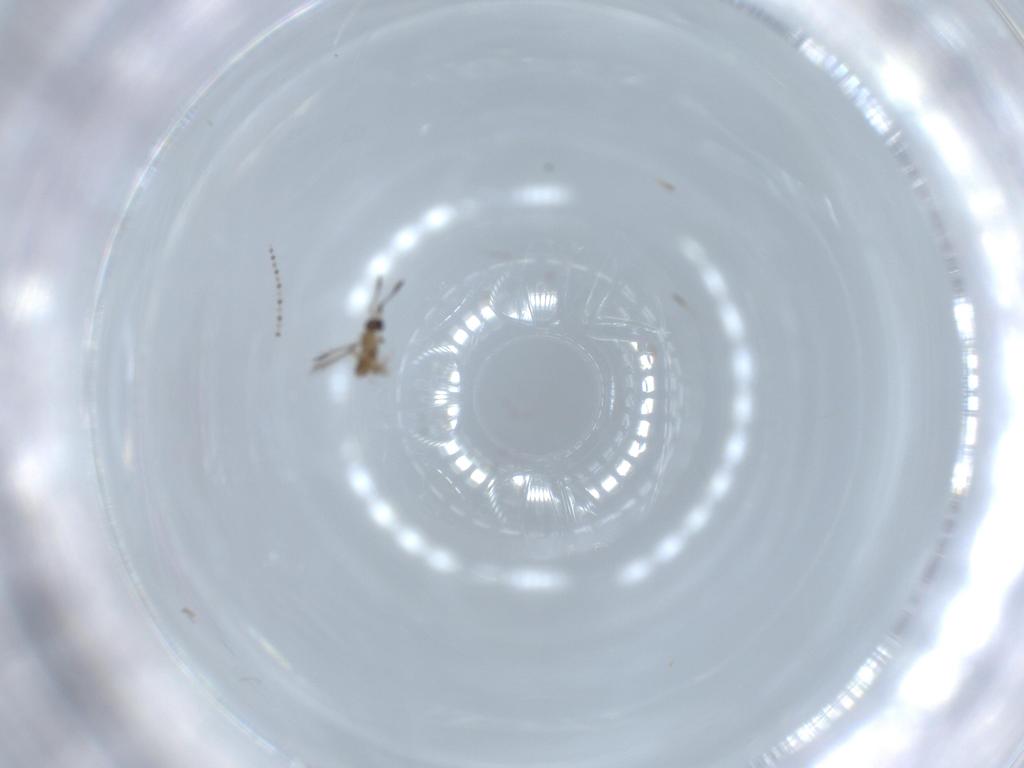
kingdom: Animalia
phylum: Arthropoda
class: Insecta
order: Hymenoptera
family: Mymaridae
